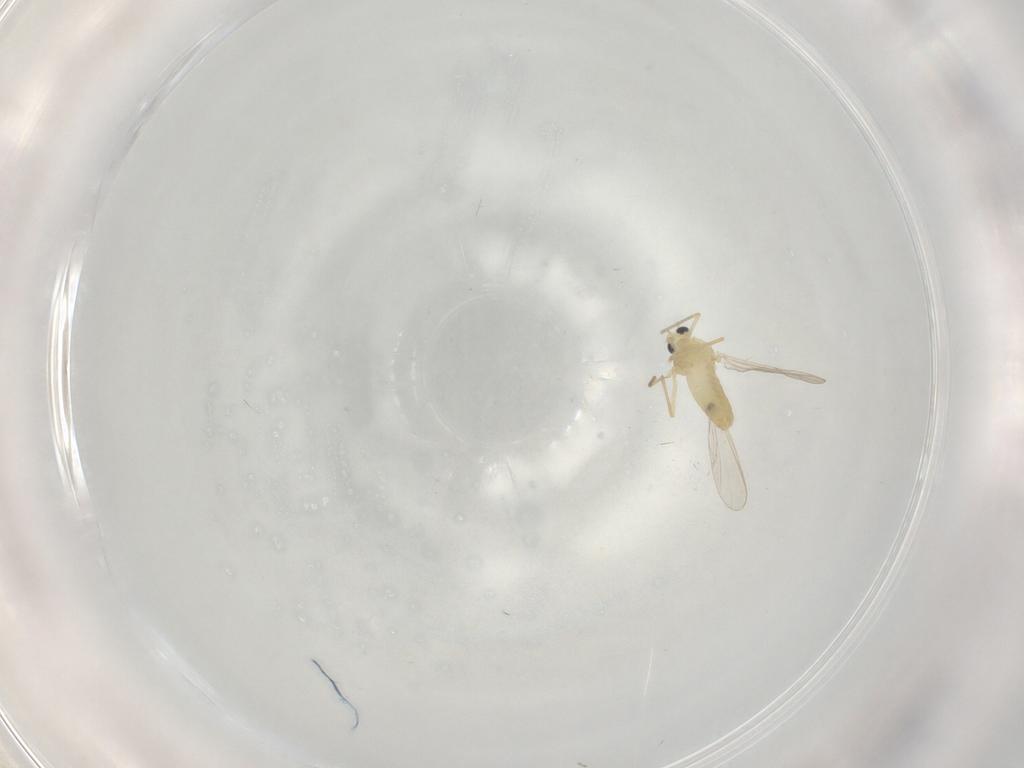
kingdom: Animalia
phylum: Arthropoda
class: Insecta
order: Diptera
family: Chironomidae
